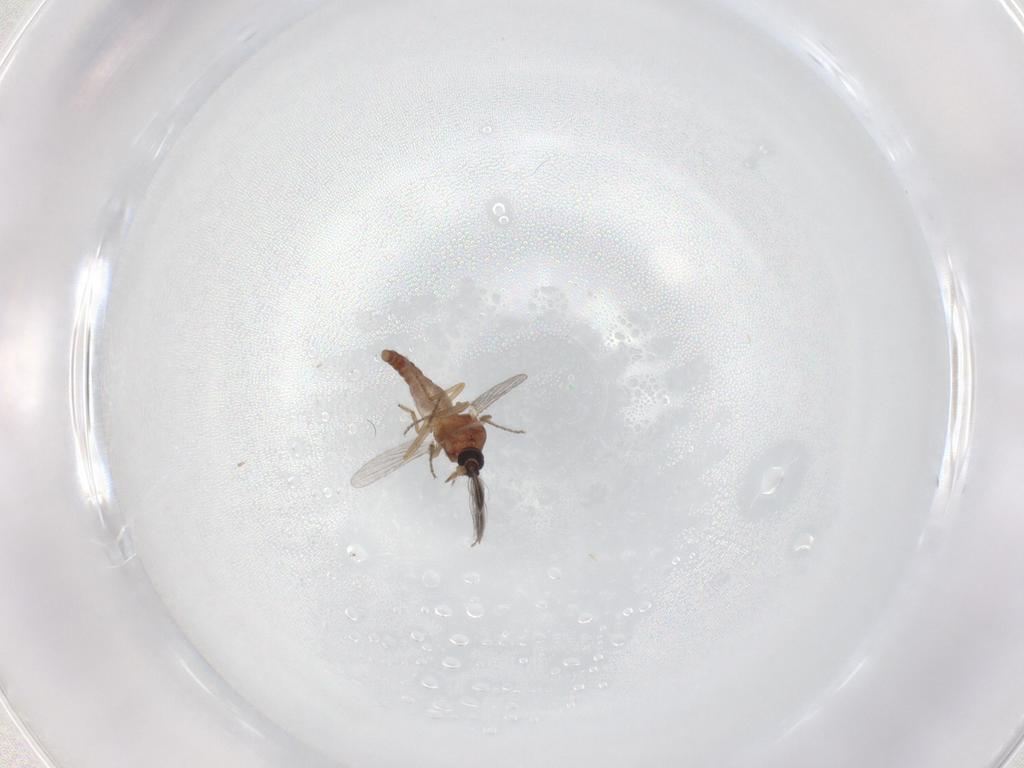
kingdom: Animalia
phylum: Arthropoda
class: Insecta
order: Diptera
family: Ceratopogonidae
